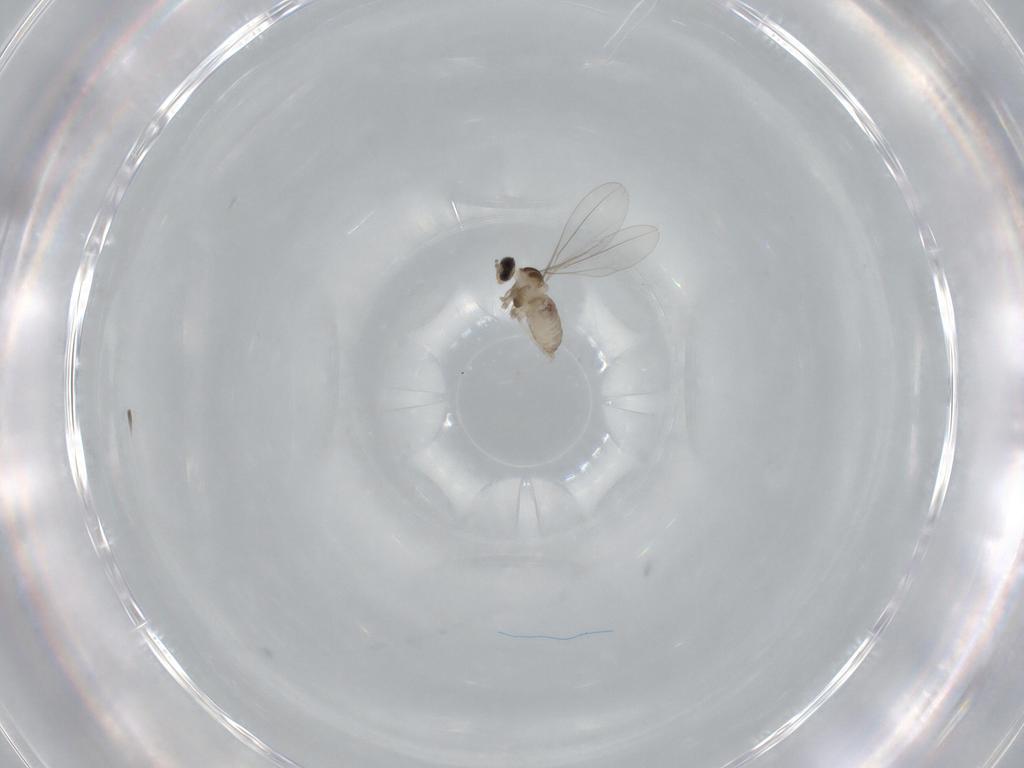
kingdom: Animalia
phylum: Arthropoda
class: Insecta
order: Diptera
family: Cecidomyiidae
